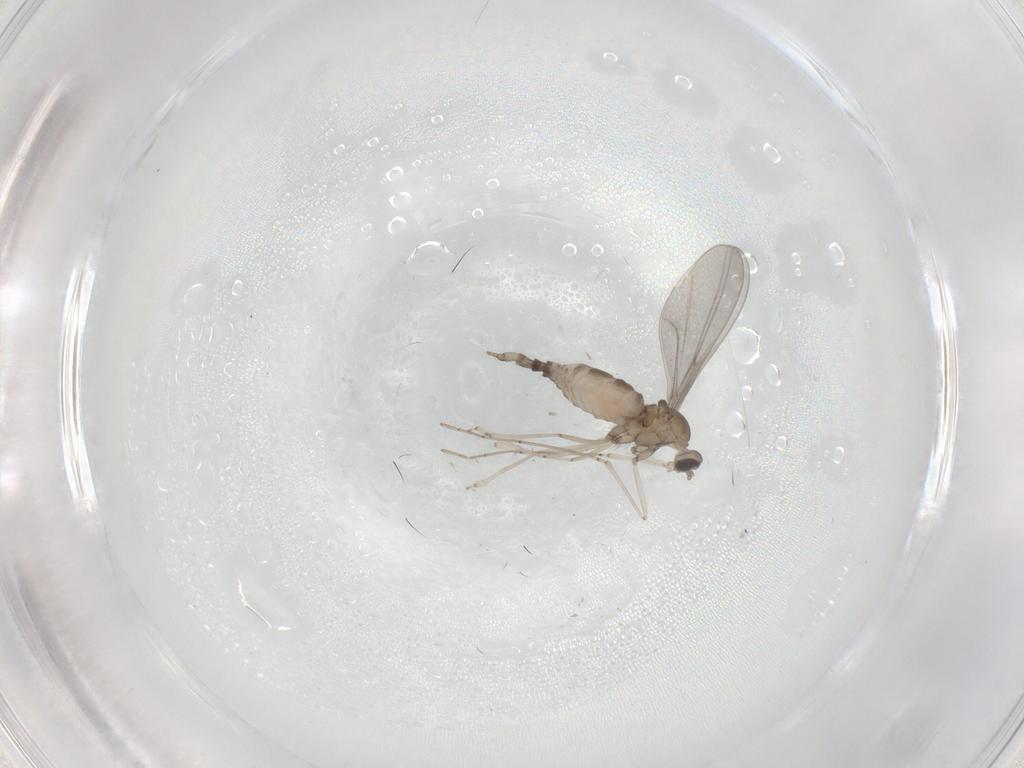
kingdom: Animalia
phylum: Arthropoda
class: Insecta
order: Diptera
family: Cecidomyiidae
